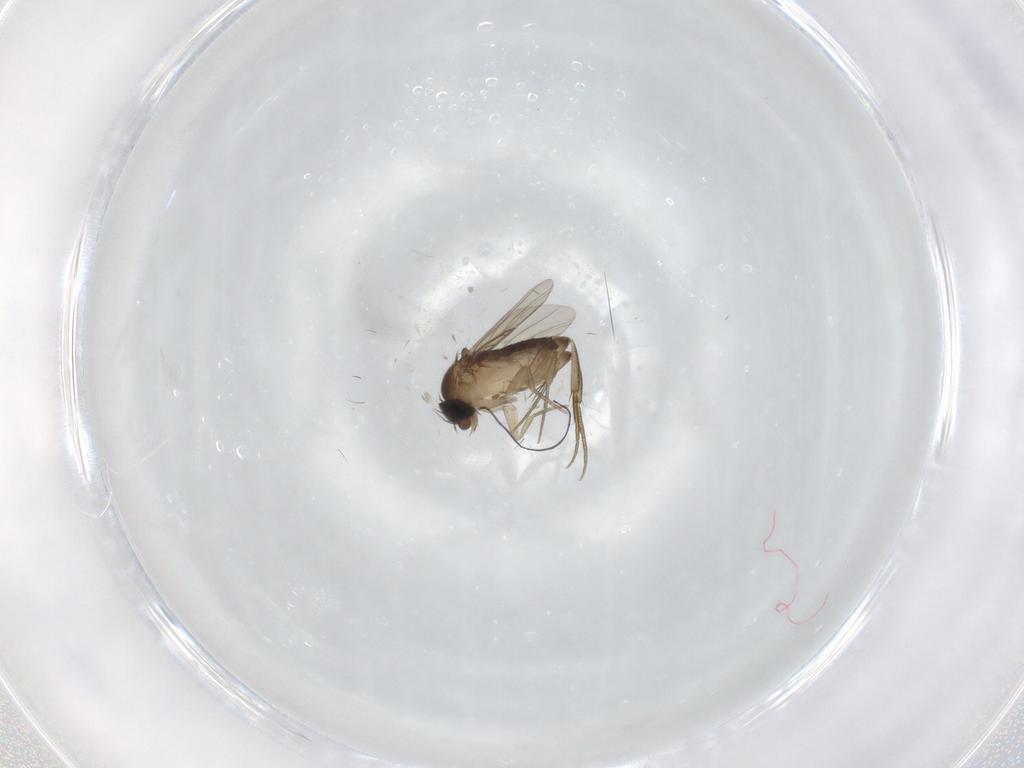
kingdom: Animalia
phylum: Arthropoda
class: Insecta
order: Diptera
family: Phoridae
